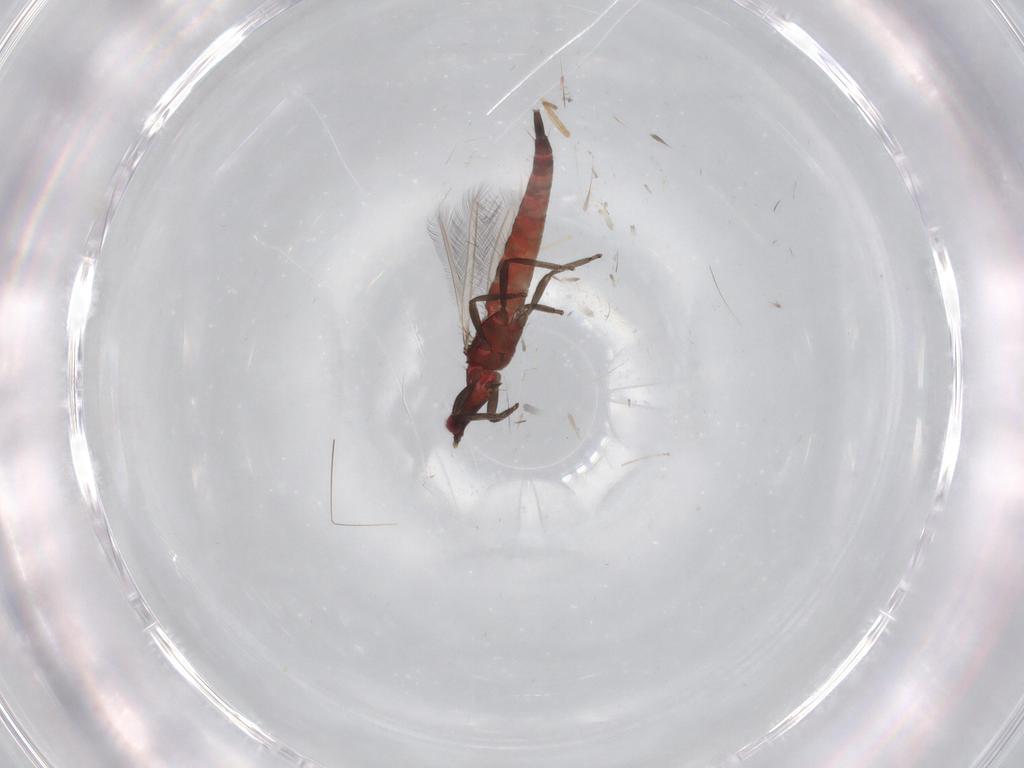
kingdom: Animalia
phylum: Arthropoda
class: Insecta
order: Thysanoptera
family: Phlaeothripidae
